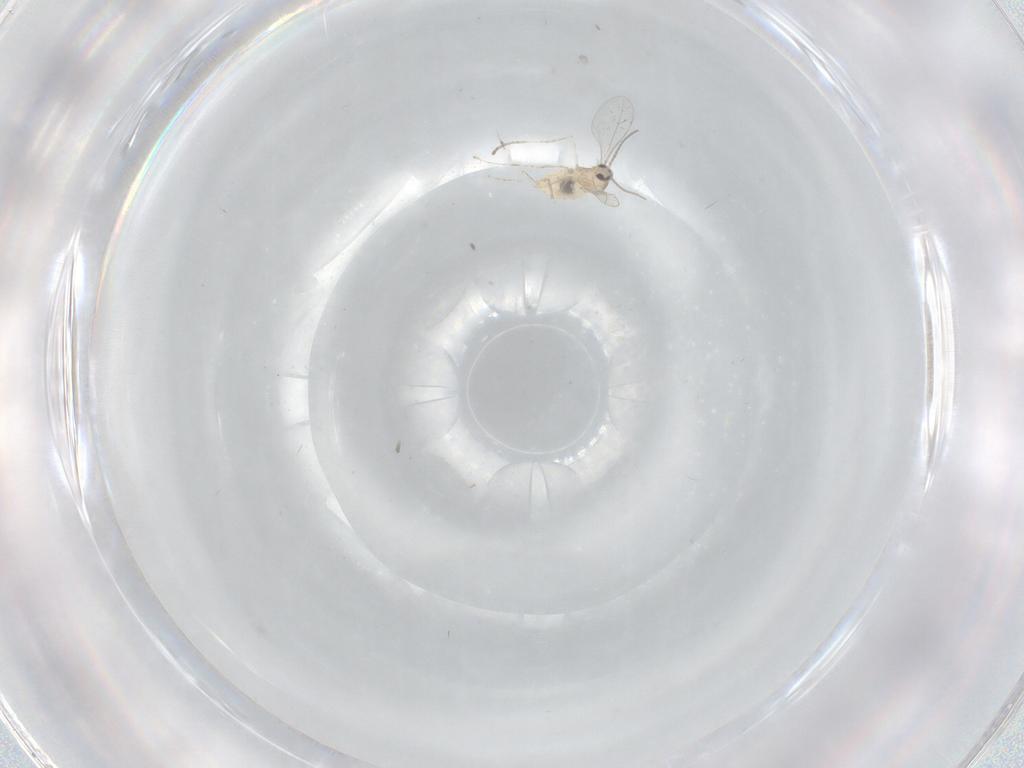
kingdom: Animalia
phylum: Arthropoda
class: Insecta
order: Diptera
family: Cecidomyiidae
